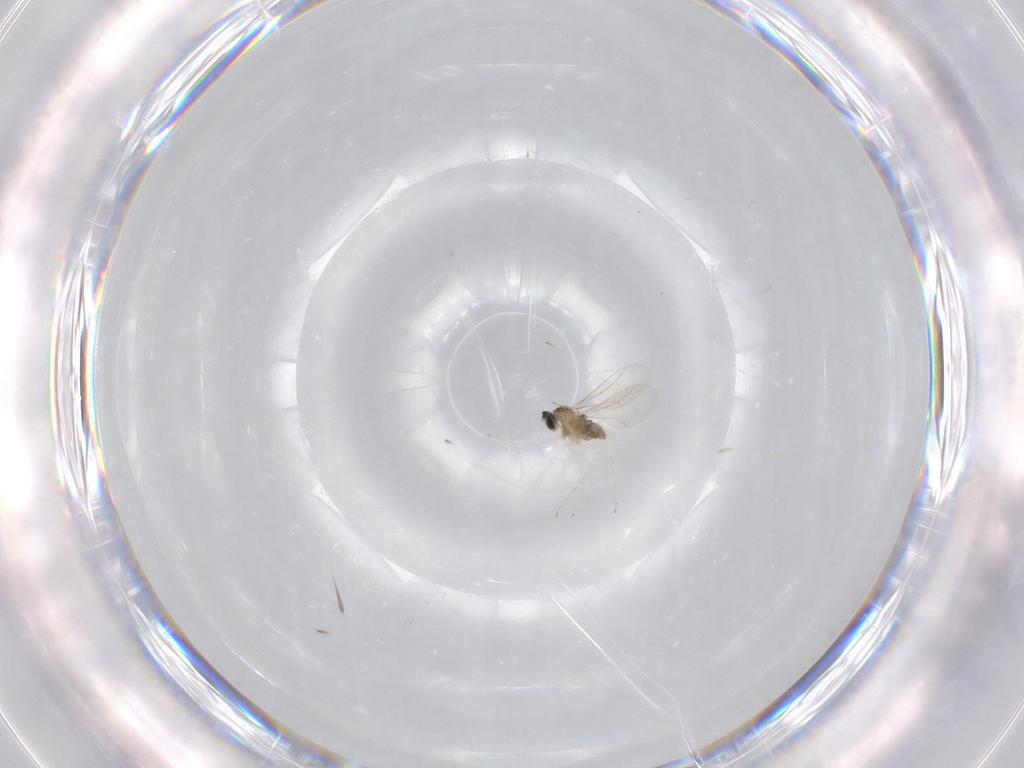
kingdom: Animalia
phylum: Arthropoda
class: Insecta
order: Diptera
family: Cecidomyiidae
